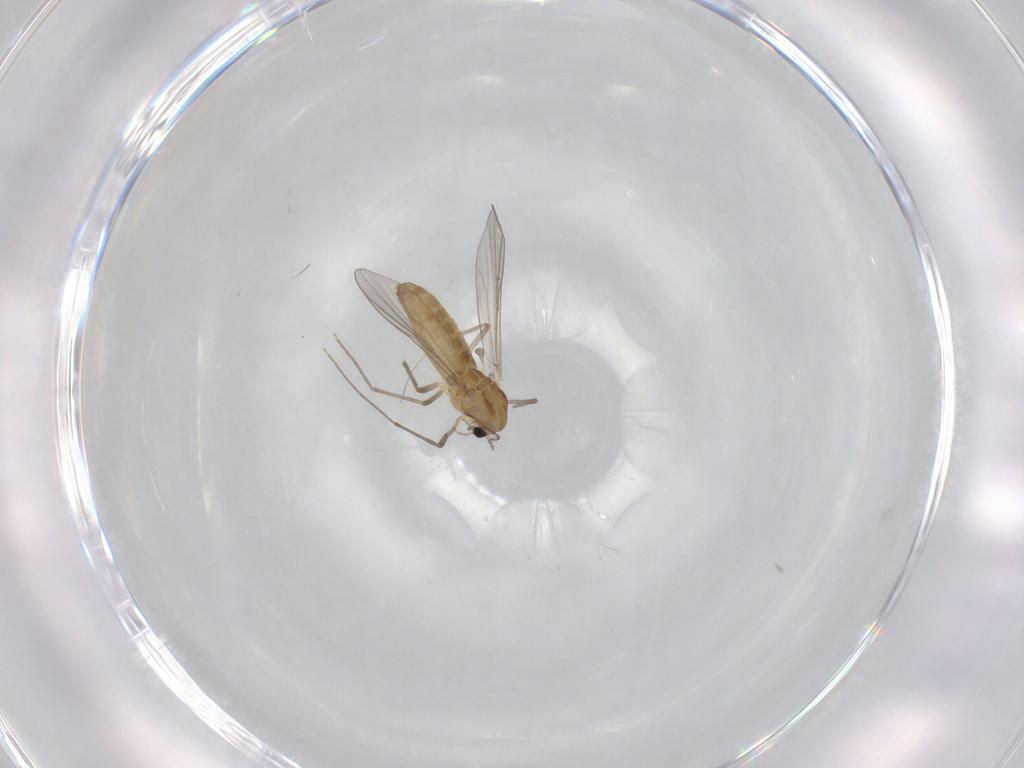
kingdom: Animalia
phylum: Arthropoda
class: Insecta
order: Diptera
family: Chironomidae
